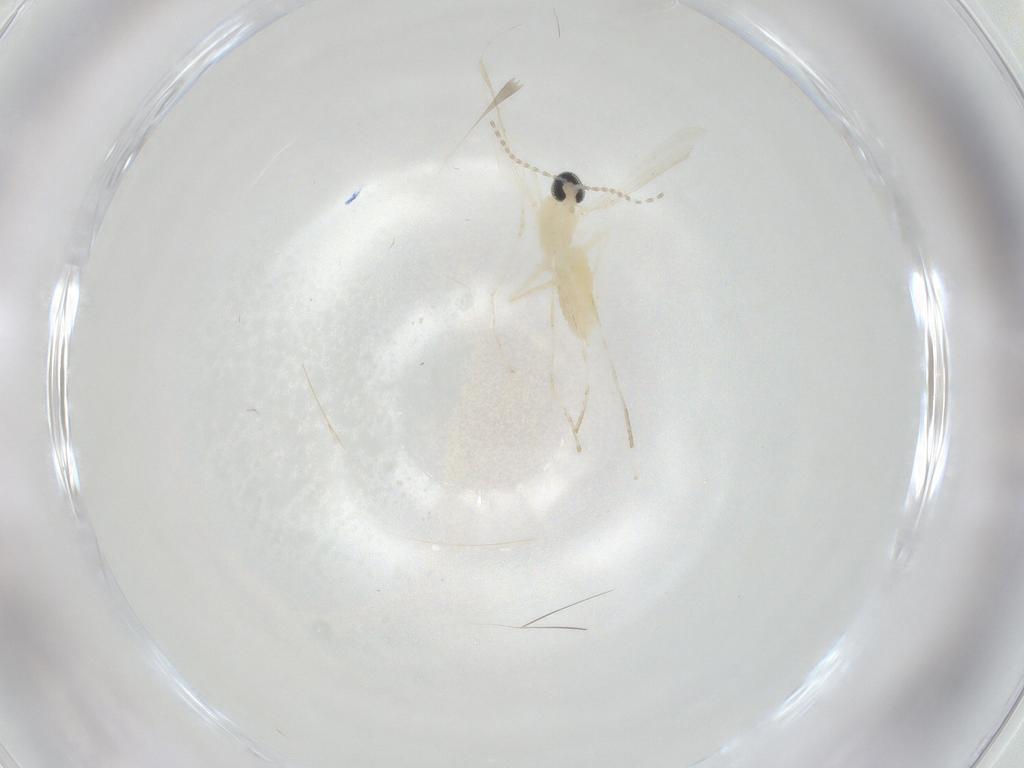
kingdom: Animalia
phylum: Arthropoda
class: Insecta
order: Diptera
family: Cecidomyiidae
